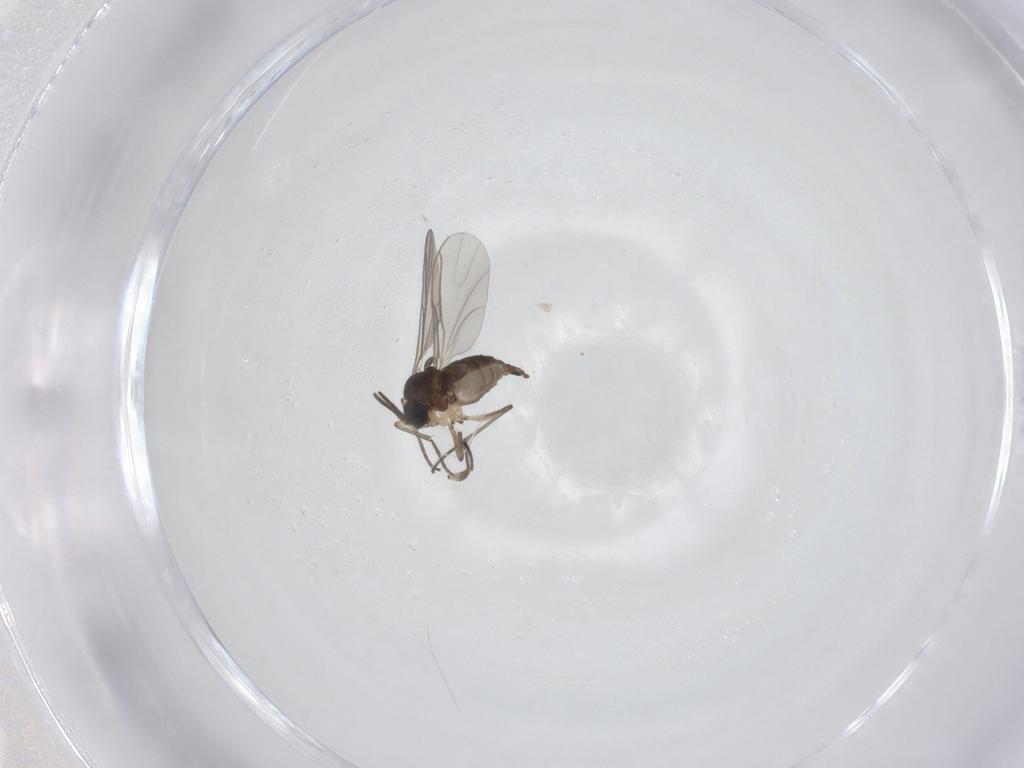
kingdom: Animalia
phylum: Arthropoda
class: Insecta
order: Diptera
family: Sciaridae
